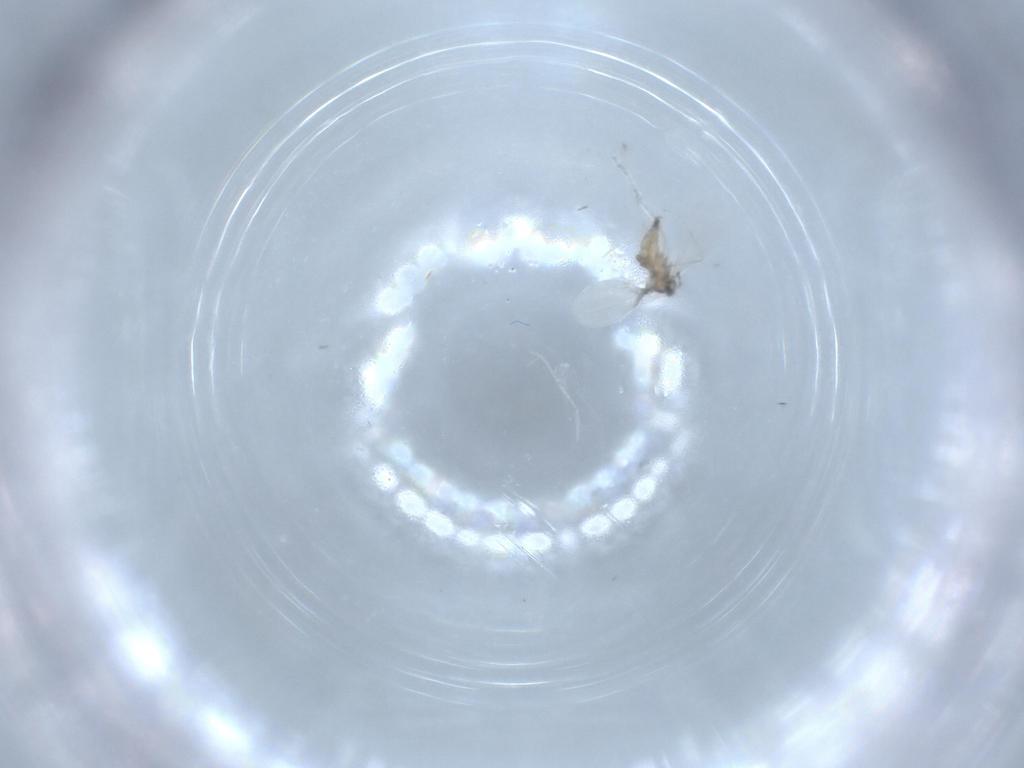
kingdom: Animalia
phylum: Arthropoda
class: Insecta
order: Diptera
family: Cecidomyiidae
